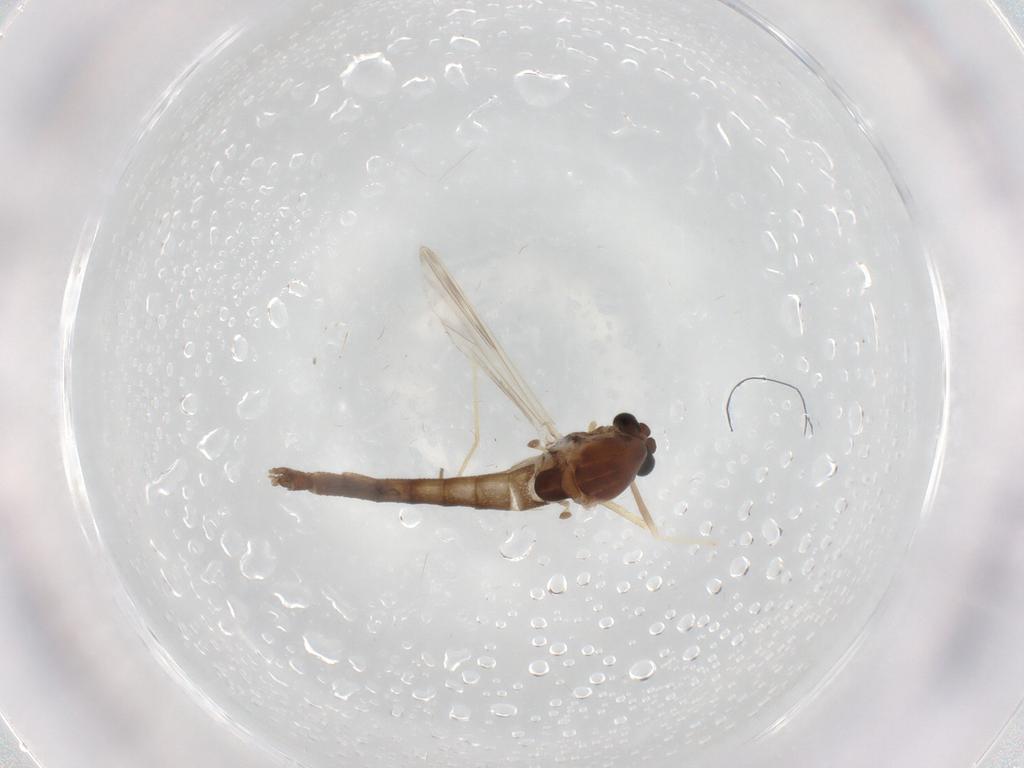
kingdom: Animalia
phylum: Arthropoda
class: Insecta
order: Diptera
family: Chironomidae
